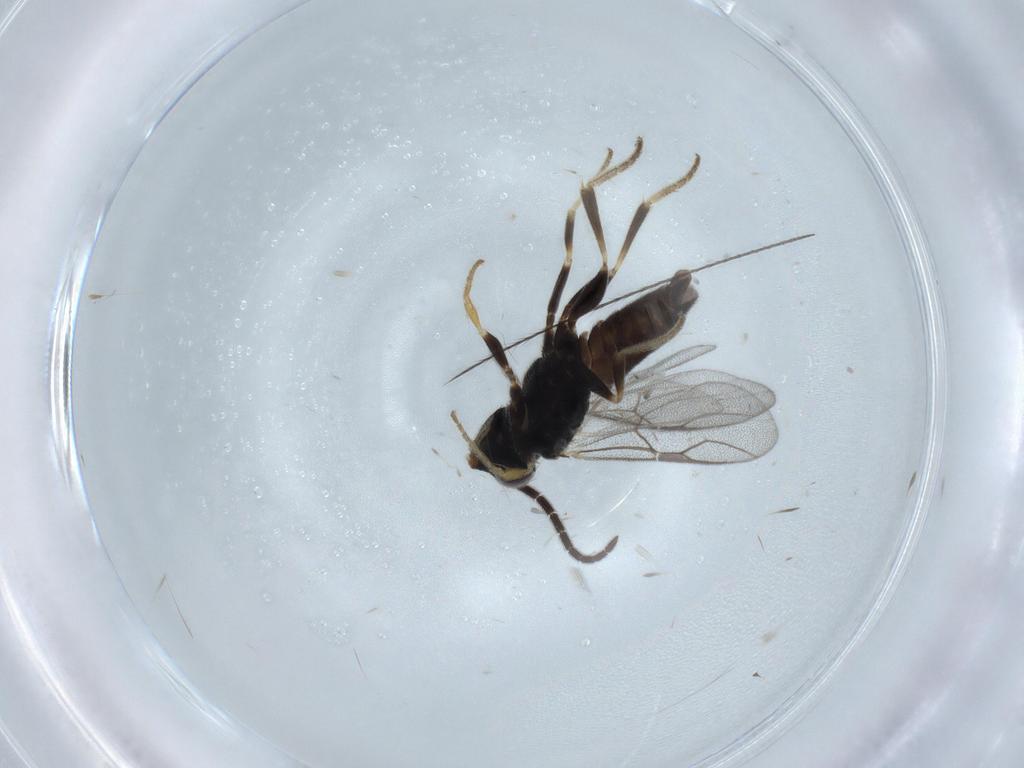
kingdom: Animalia
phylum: Arthropoda
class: Insecta
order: Hymenoptera
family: Dryinidae
